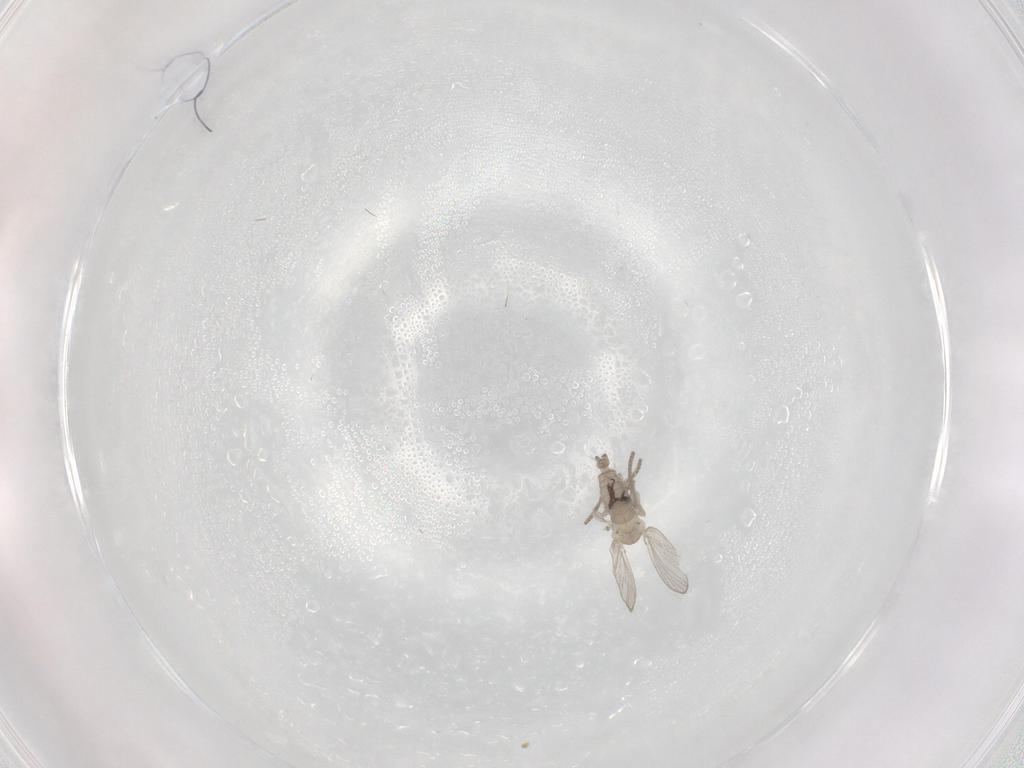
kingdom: Animalia
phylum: Arthropoda
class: Insecta
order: Diptera
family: Psychodidae
